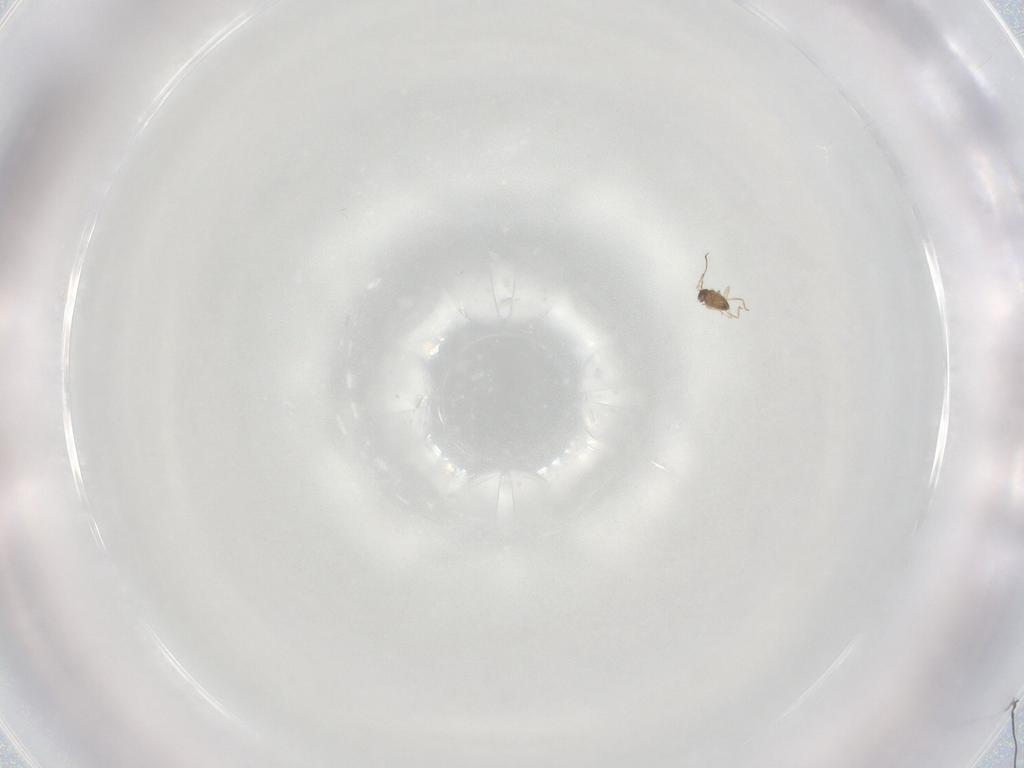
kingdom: Animalia
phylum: Arthropoda
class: Insecta
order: Hymenoptera
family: Mymaridae
